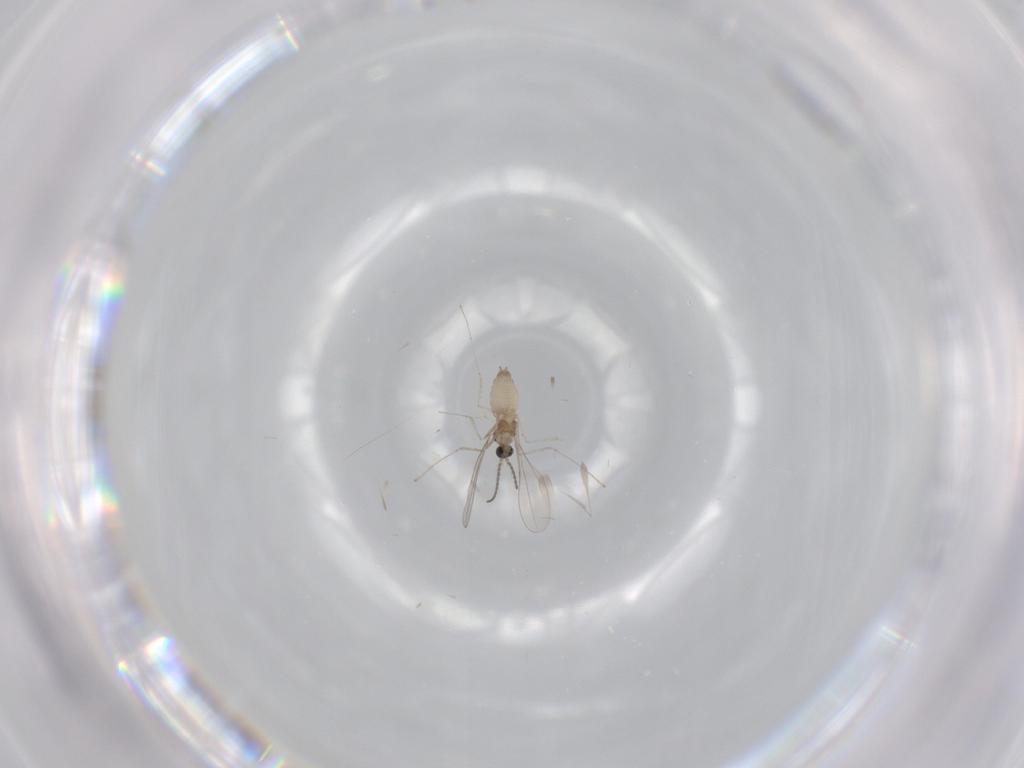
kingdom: Animalia
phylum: Arthropoda
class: Insecta
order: Diptera
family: Cecidomyiidae
